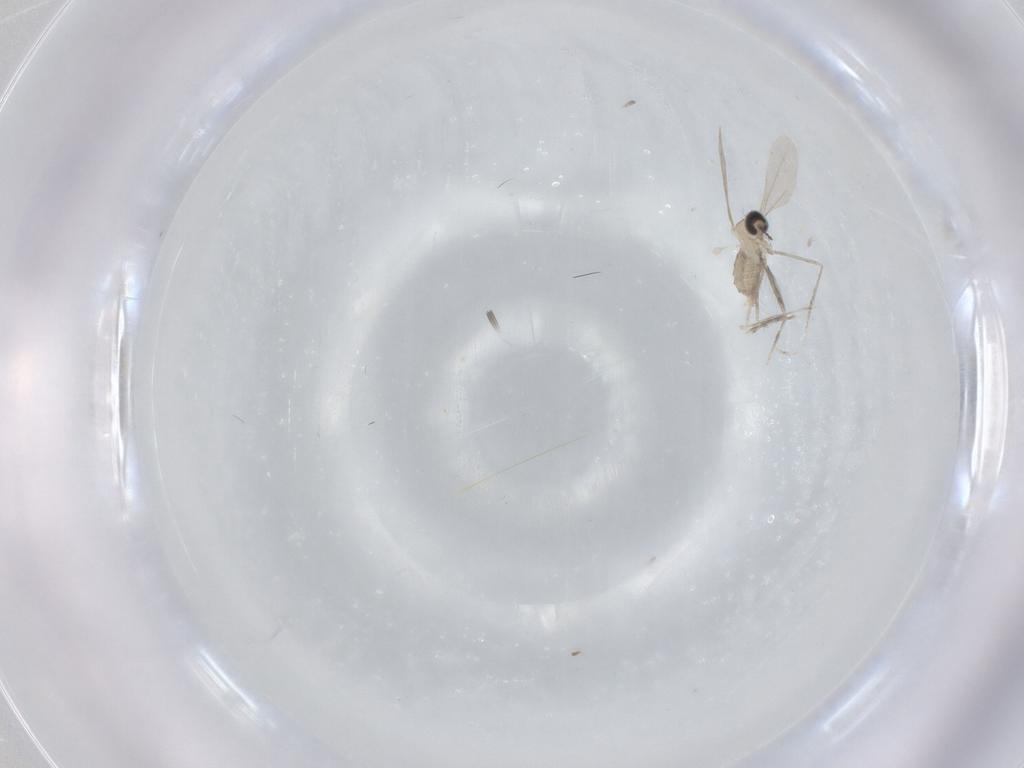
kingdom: Animalia
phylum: Arthropoda
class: Insecta
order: Diptera
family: Cecidomyiidae
